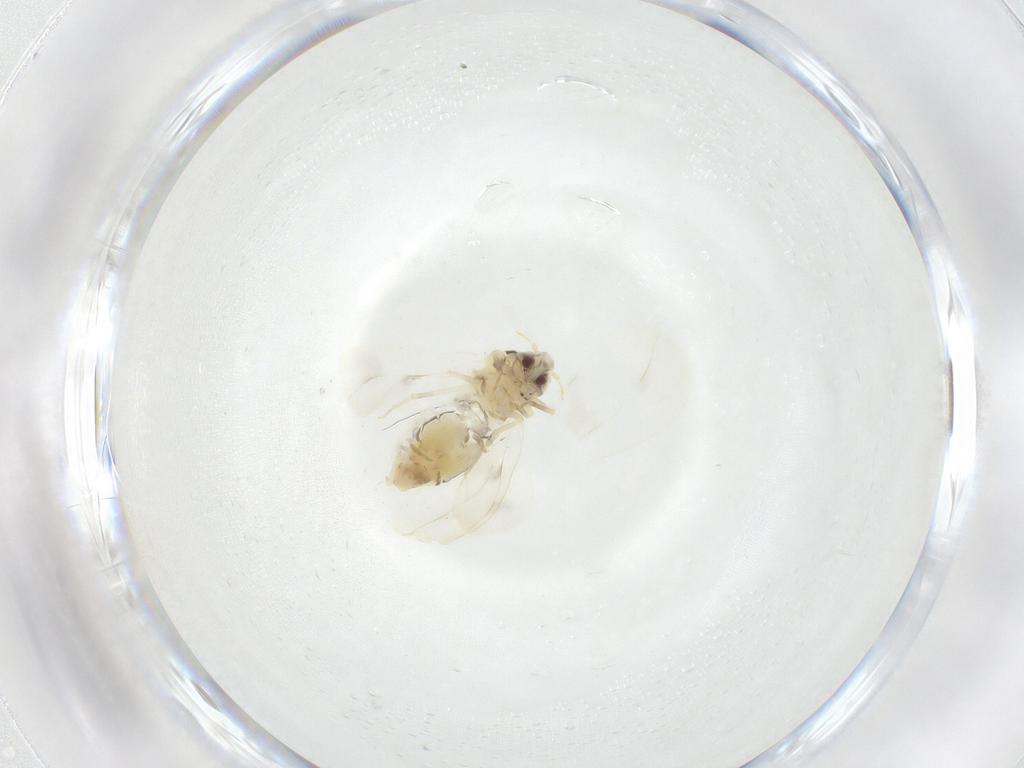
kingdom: Animalia
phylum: Arthropoda
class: Insecta
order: Hemiptera
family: Aleyrodidae
